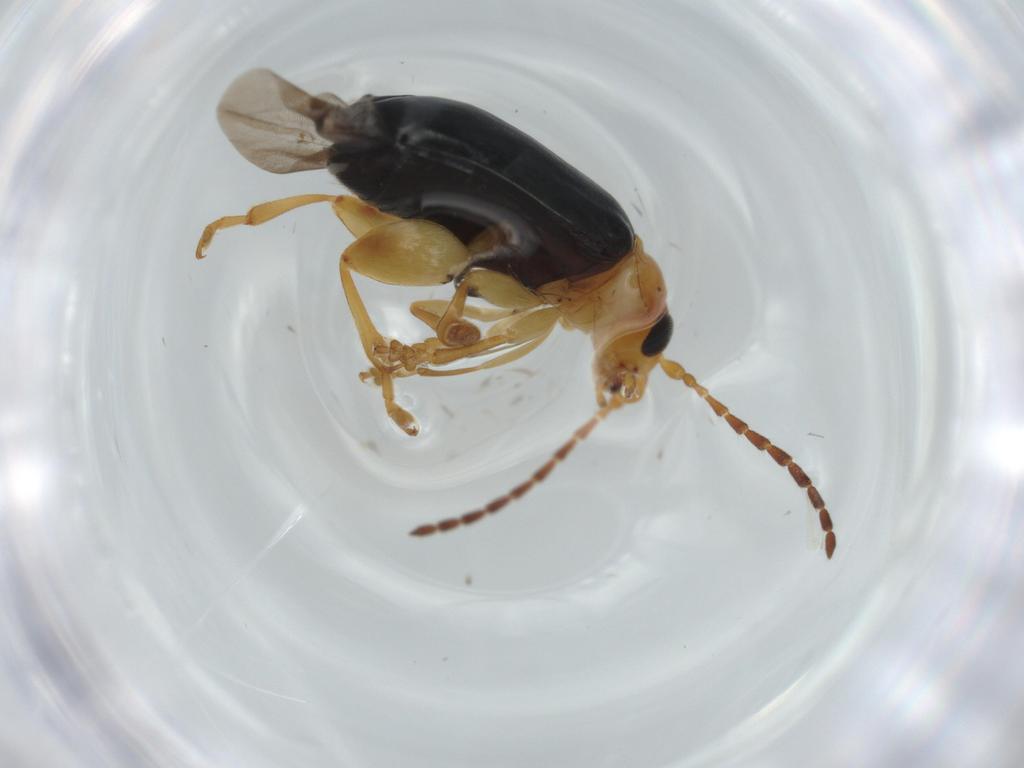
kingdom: Animalia
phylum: Arthropoda
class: Insecta
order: Coleoptera
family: Chrysomelidae
